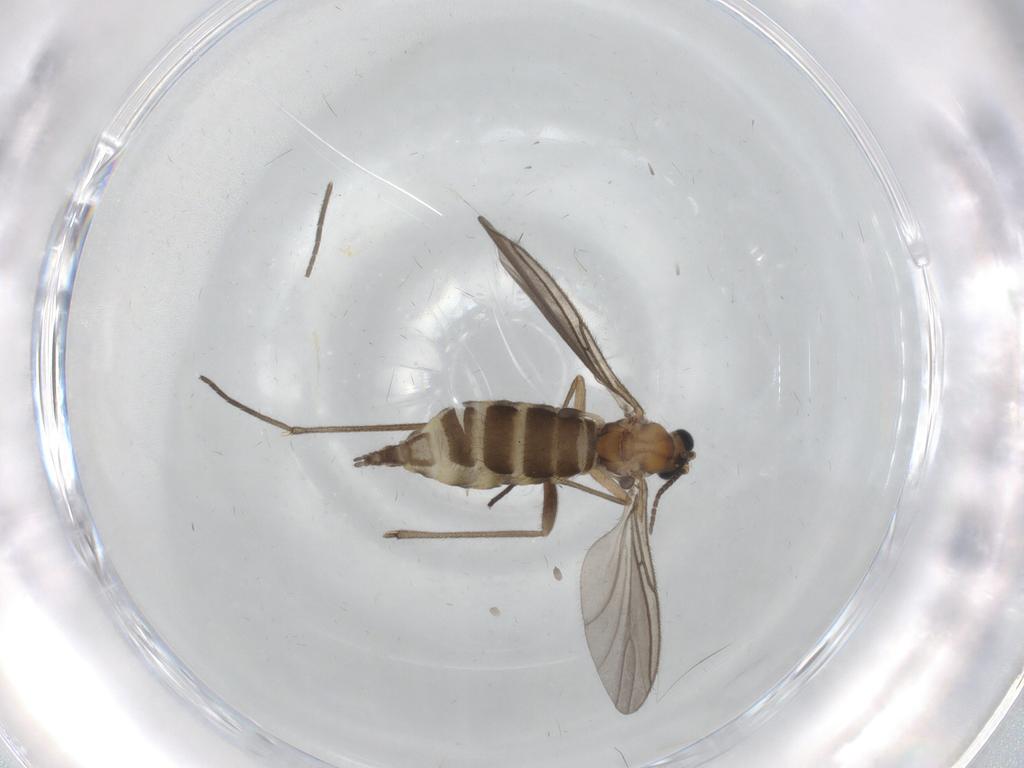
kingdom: Animalia
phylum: Arthropoda
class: Insecta
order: Diptera
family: Sciaridae
